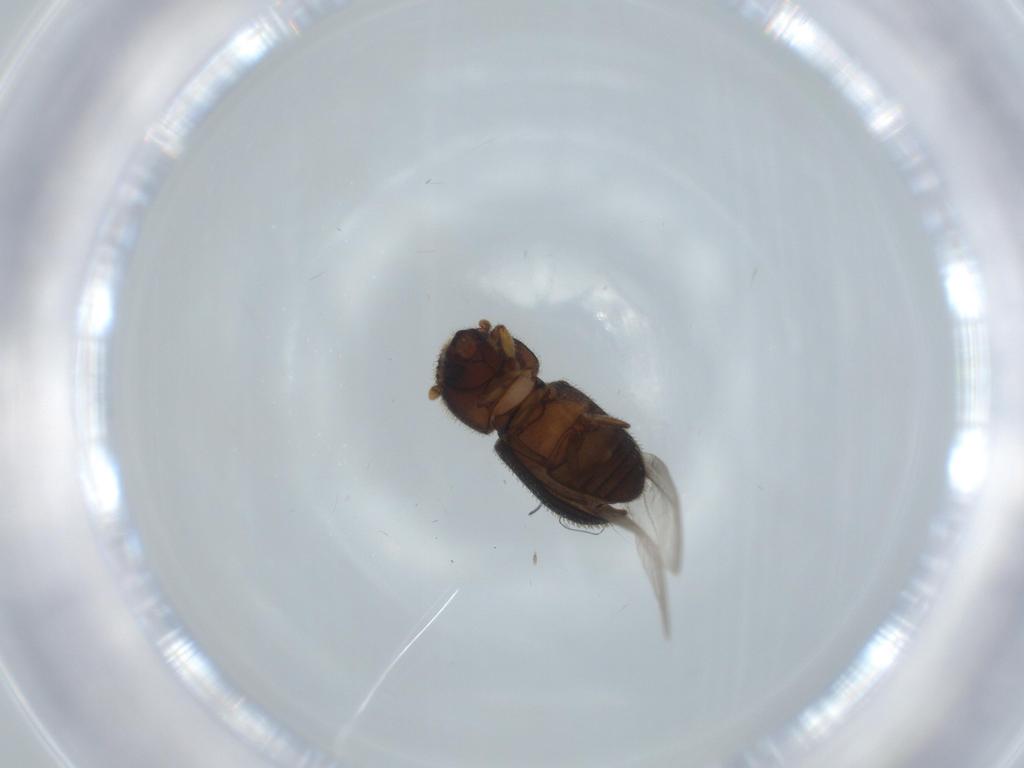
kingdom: Animalia
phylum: Arthropoda
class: Insecta
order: Coleoptera
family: Curculionidae
